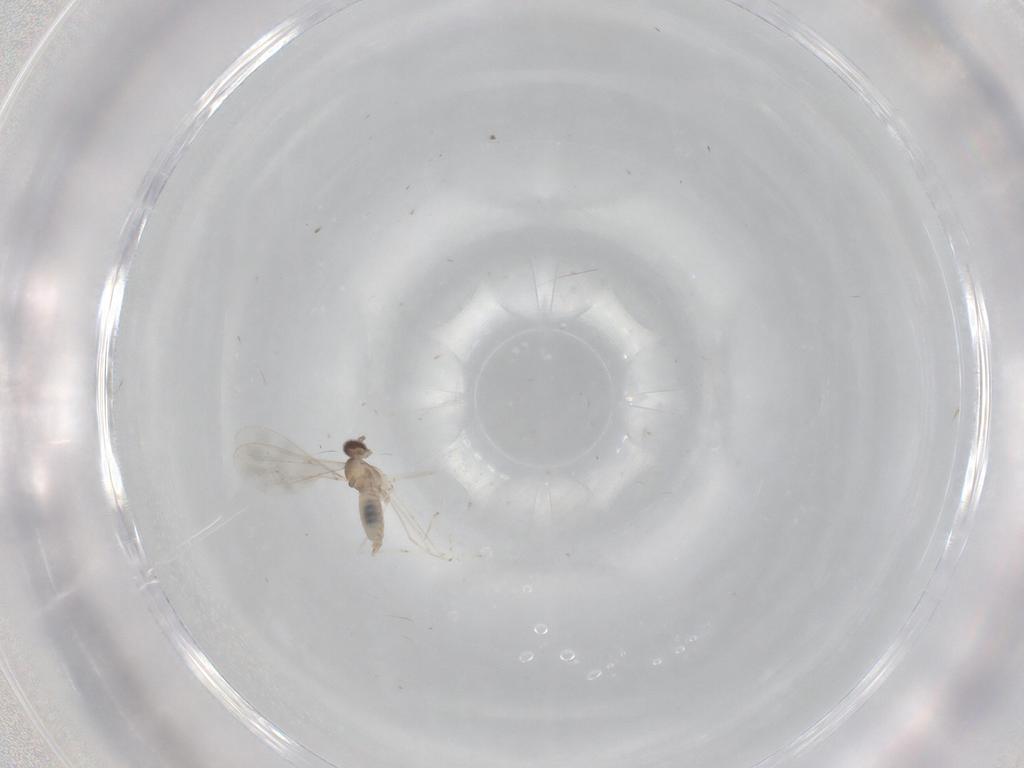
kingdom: Animalia
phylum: Arthropoda
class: Insecta
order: Diptera
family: Cecidomyiidae
